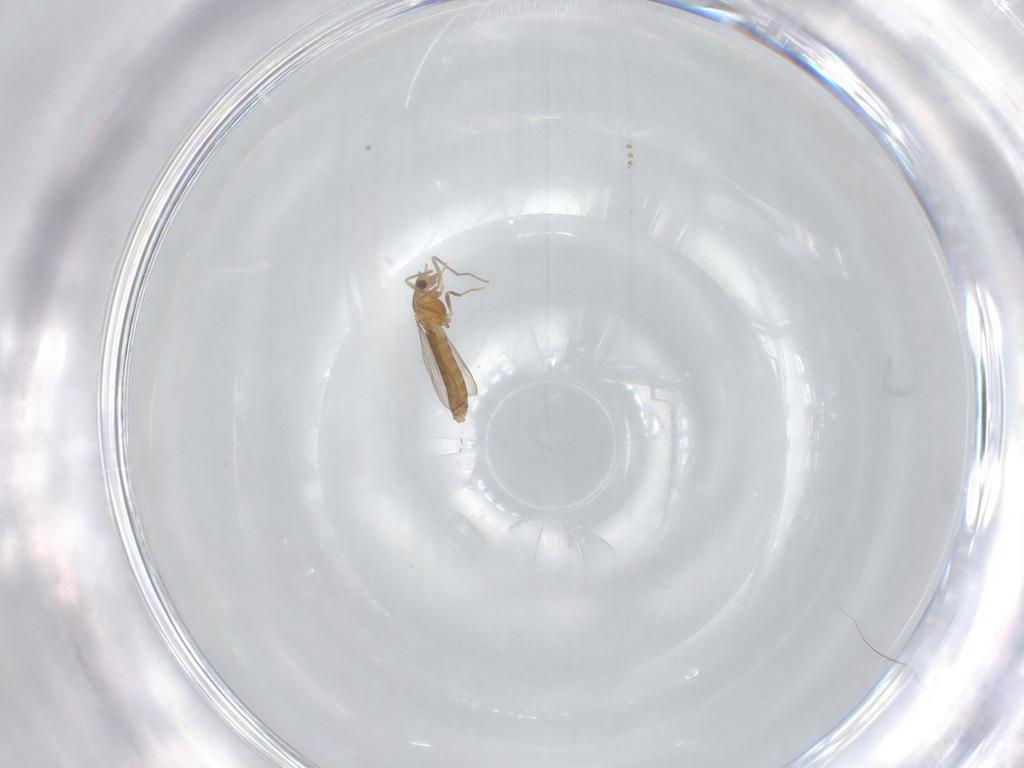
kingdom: Animalia
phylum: Arthropoda
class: Insecta
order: Diptera
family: Chironomidae
